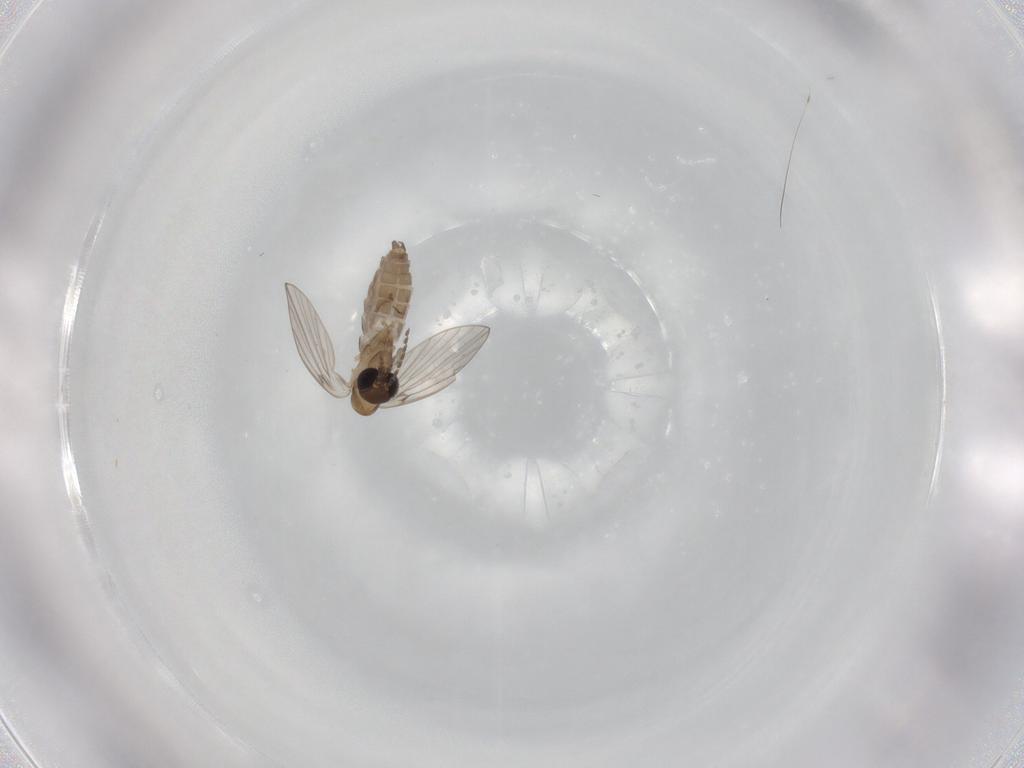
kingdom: Animalia
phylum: Arthropoda
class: Insecta
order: Diptera
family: Psychodidae
